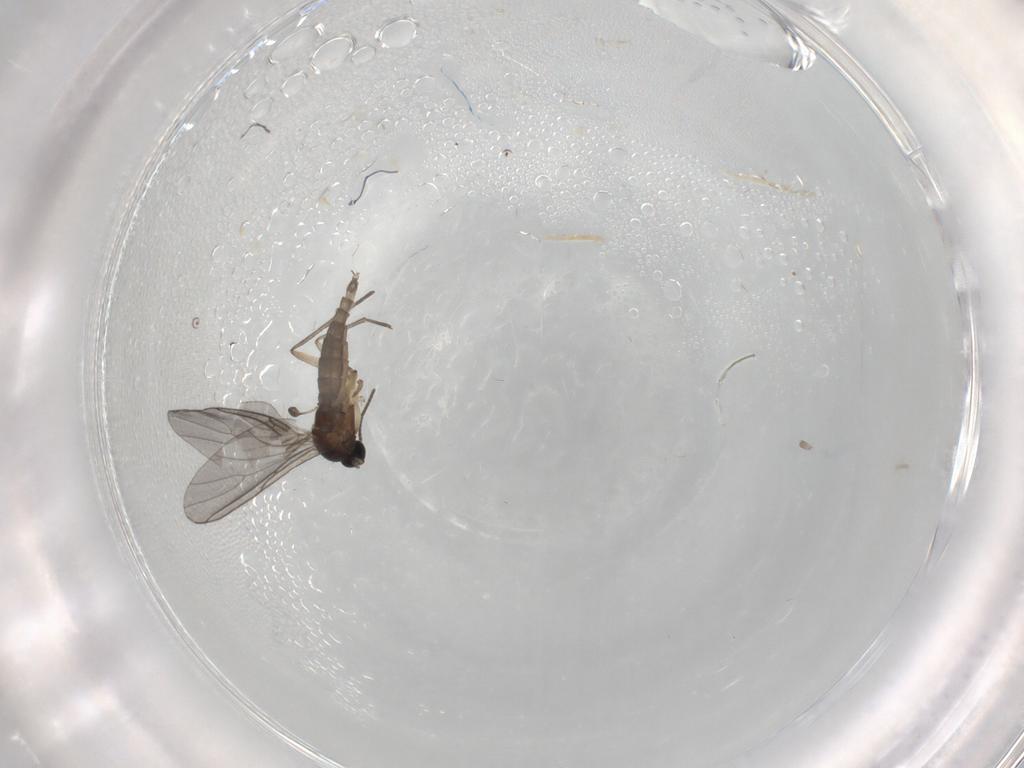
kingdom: Animalia
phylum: Arthropoda
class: Insecta
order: Diptera
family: Sciaridae
